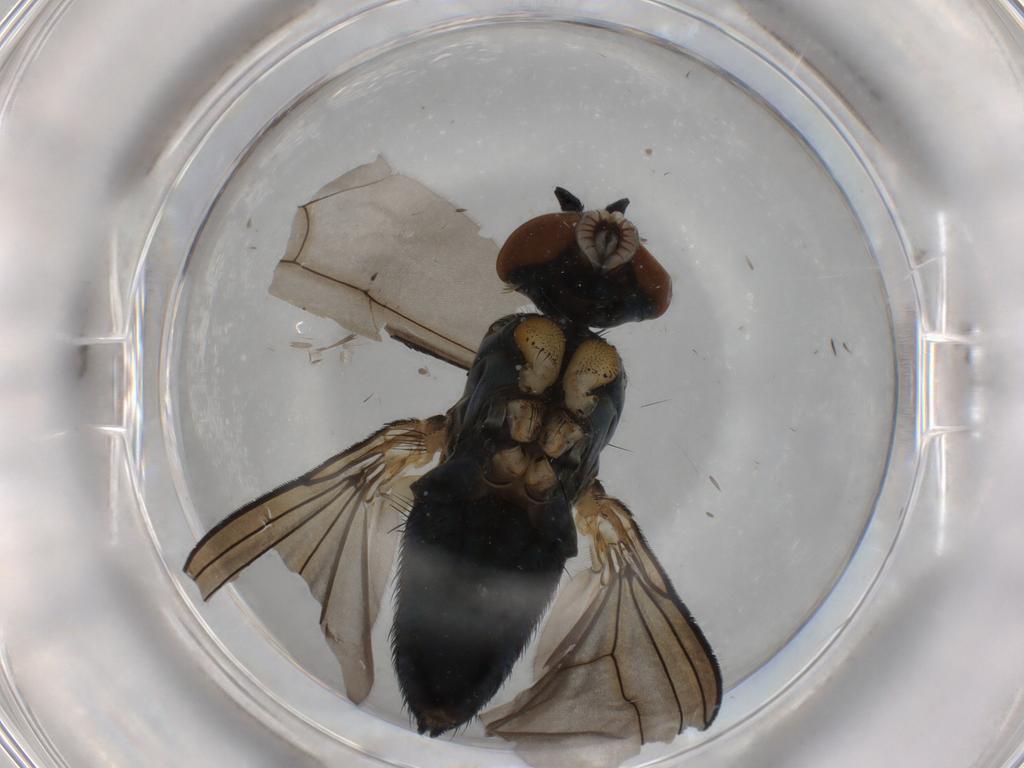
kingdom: Animalia
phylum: Arthropoda
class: Insecta
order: Diptera
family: Dolichopodidae
